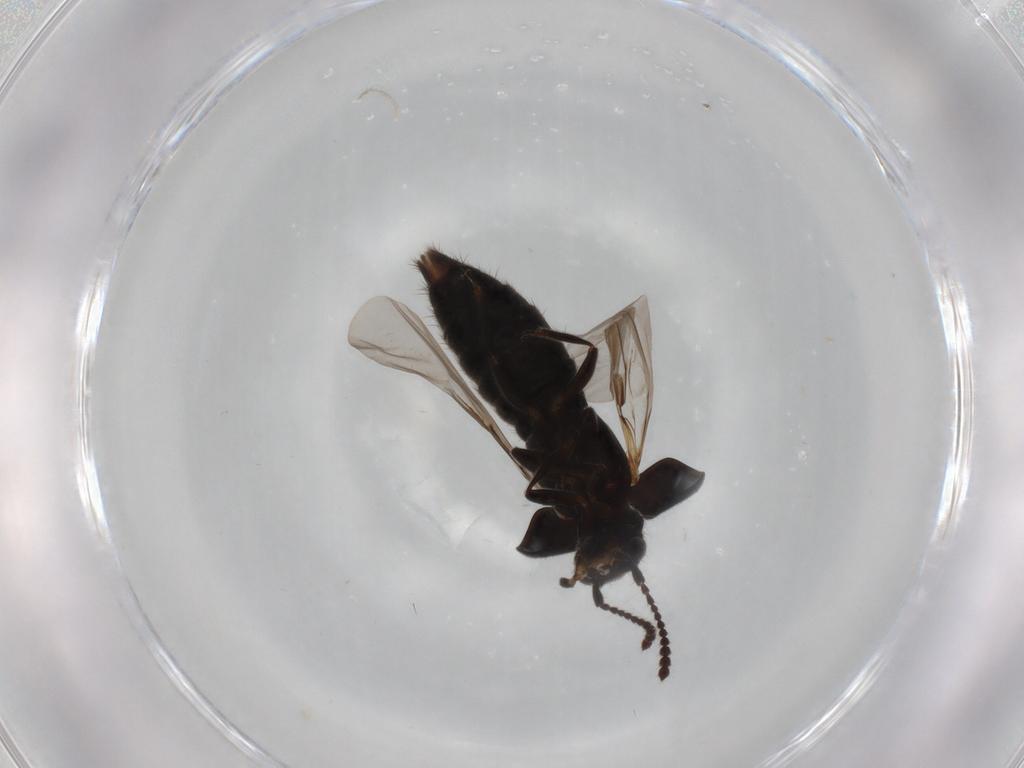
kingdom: Animalia
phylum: Arthropoda
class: Insecta
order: Coleoptera
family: Staphylinidae
